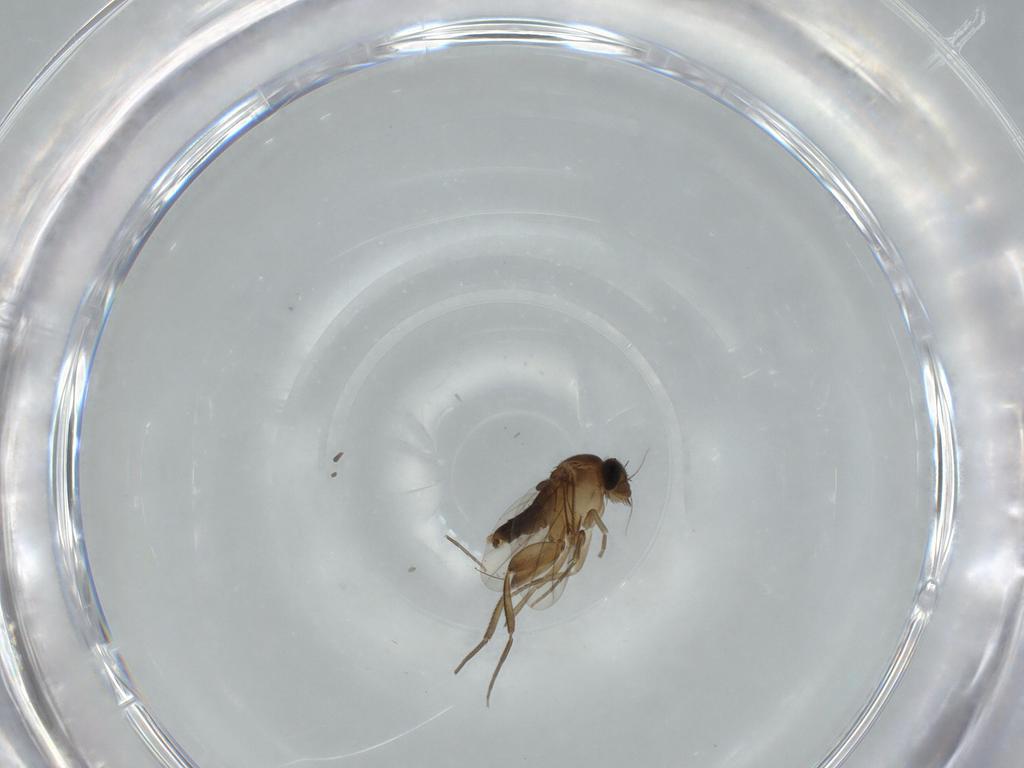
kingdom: Animalia
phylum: Arthropoda
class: Insecta
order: Diptera
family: Phoridae
